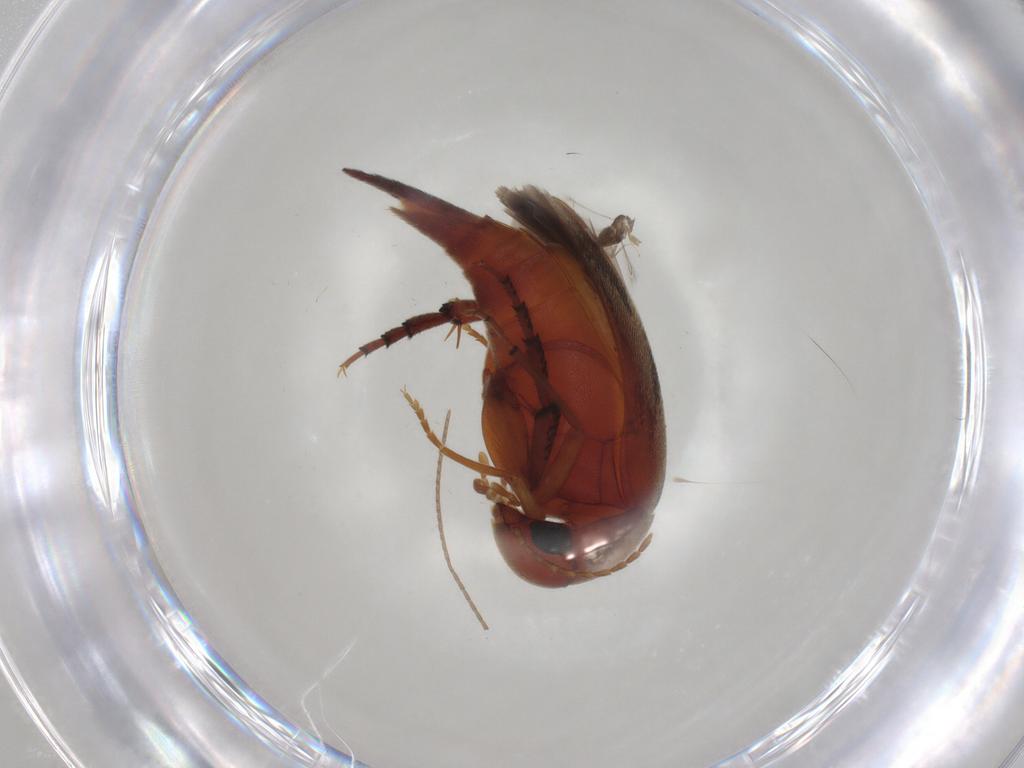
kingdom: Animalia
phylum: Arthropoda
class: Insecta
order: Coleoptera
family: Mordellidae
